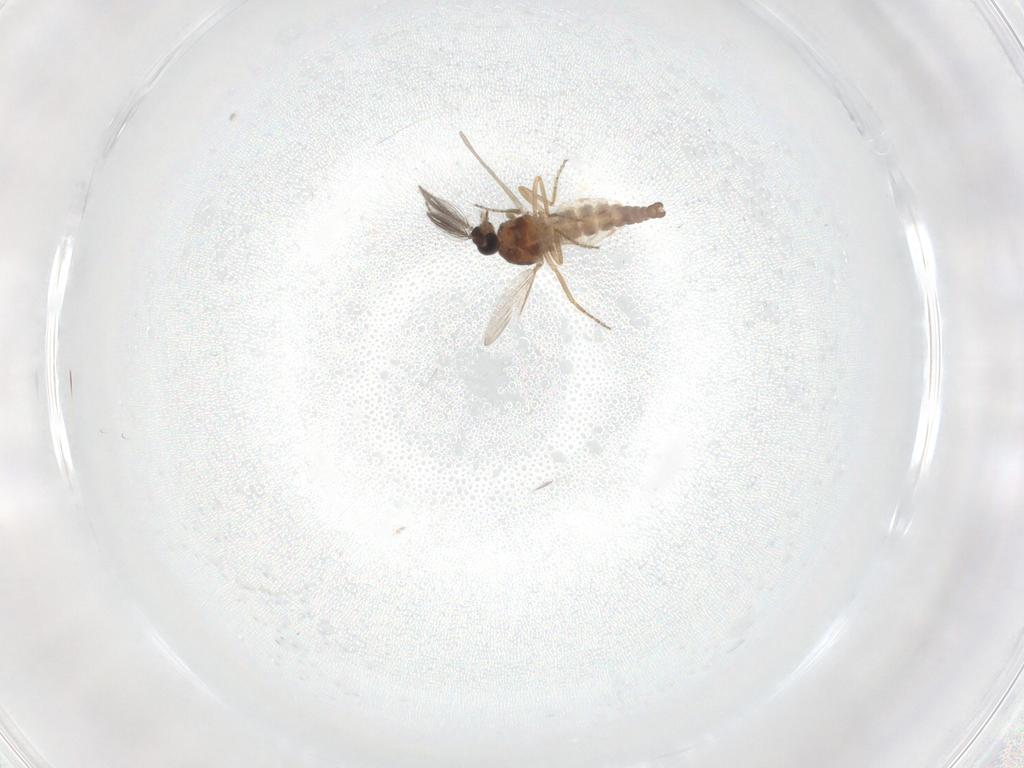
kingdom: Animalia
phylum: Arthropoda
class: Insecta
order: Diptera
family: Ceratopogonidae
